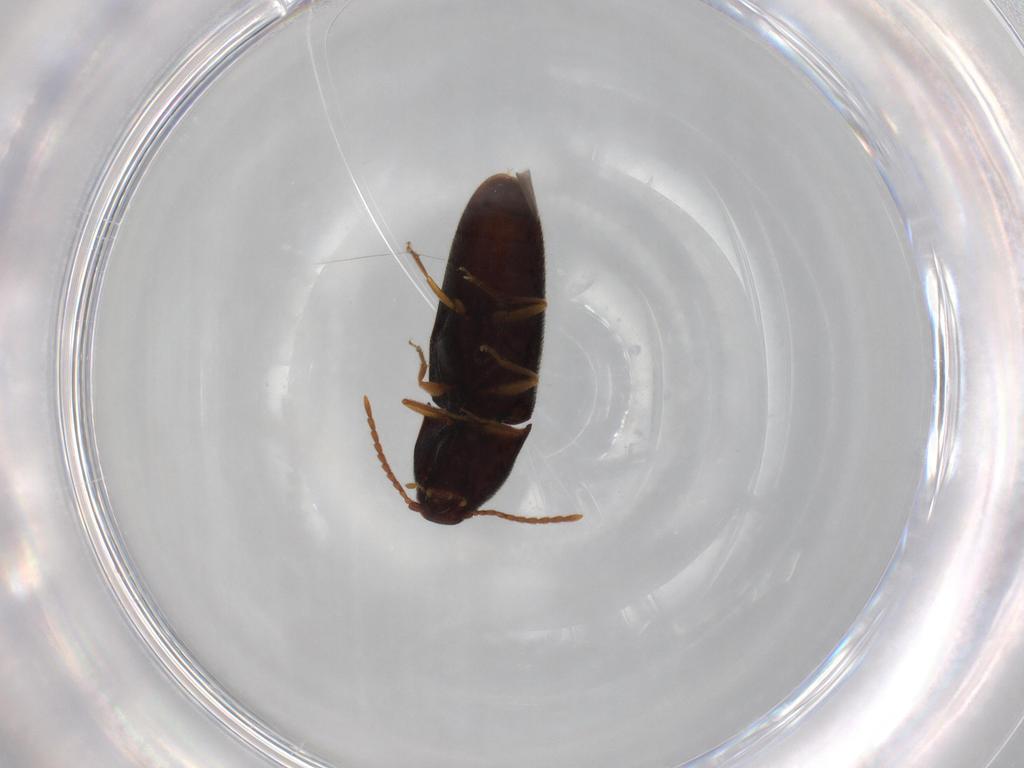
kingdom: Animalia
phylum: Arthropoda
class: Insecta
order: Coleoptera
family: Elateridae
